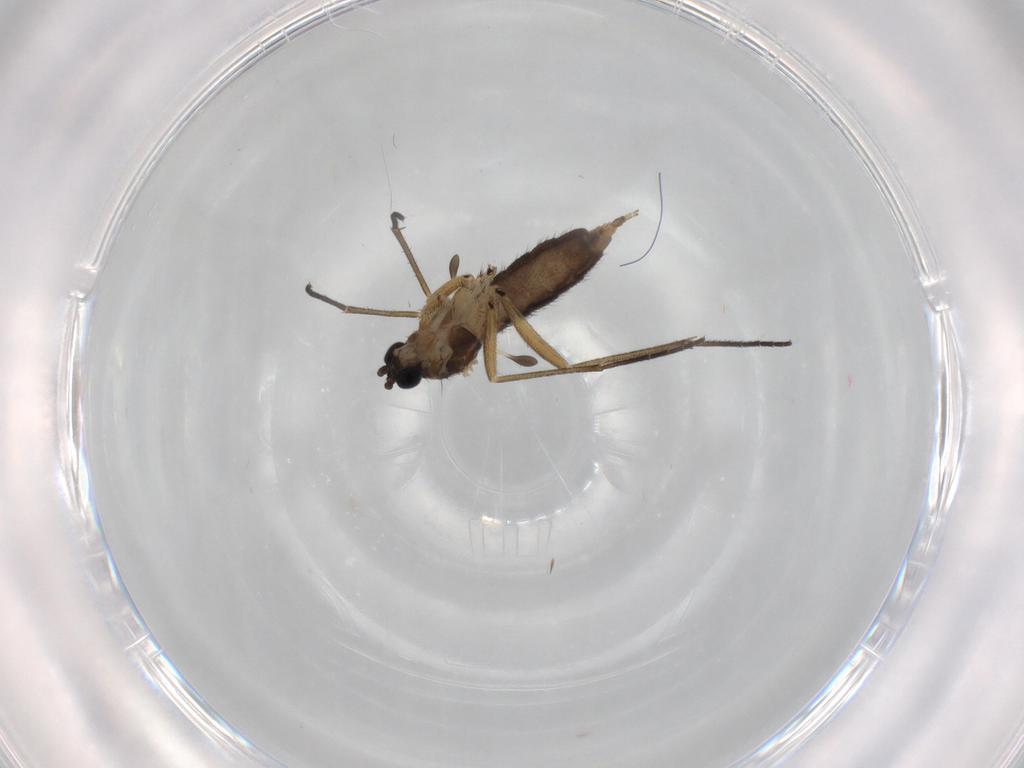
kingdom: Animalia
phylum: Arthropoda
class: Insecta
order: Diptera
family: Sciaridae
